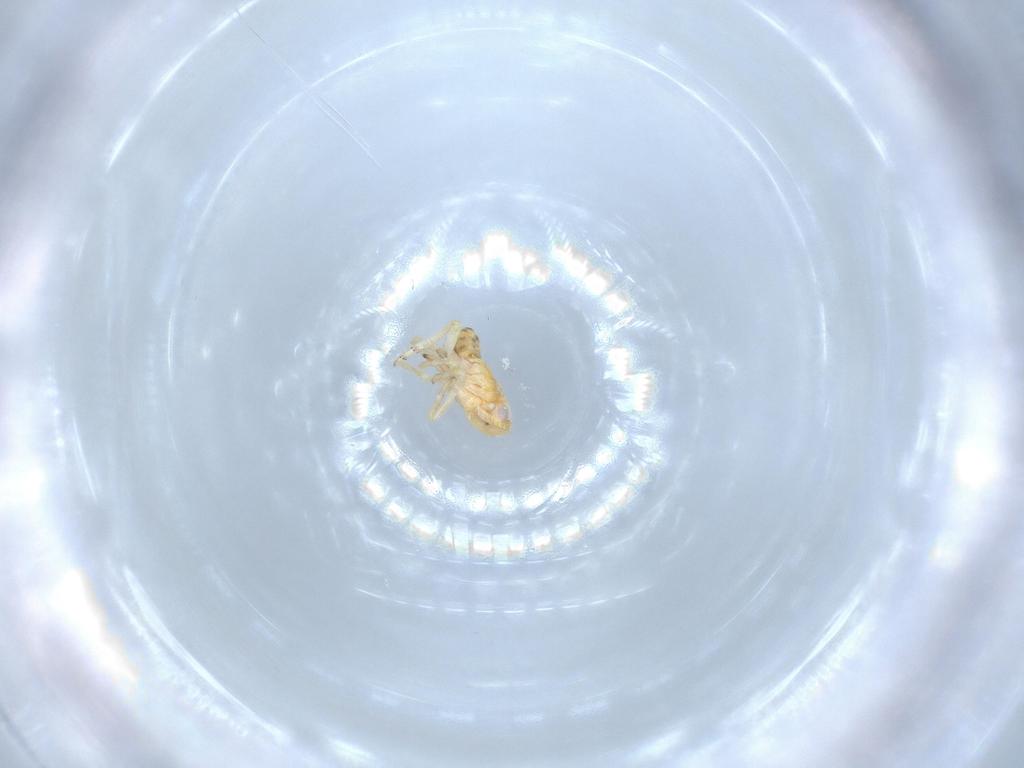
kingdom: Animalia
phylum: Arthropoda
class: Insecta
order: Hemiptera
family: Tropiduchidae
